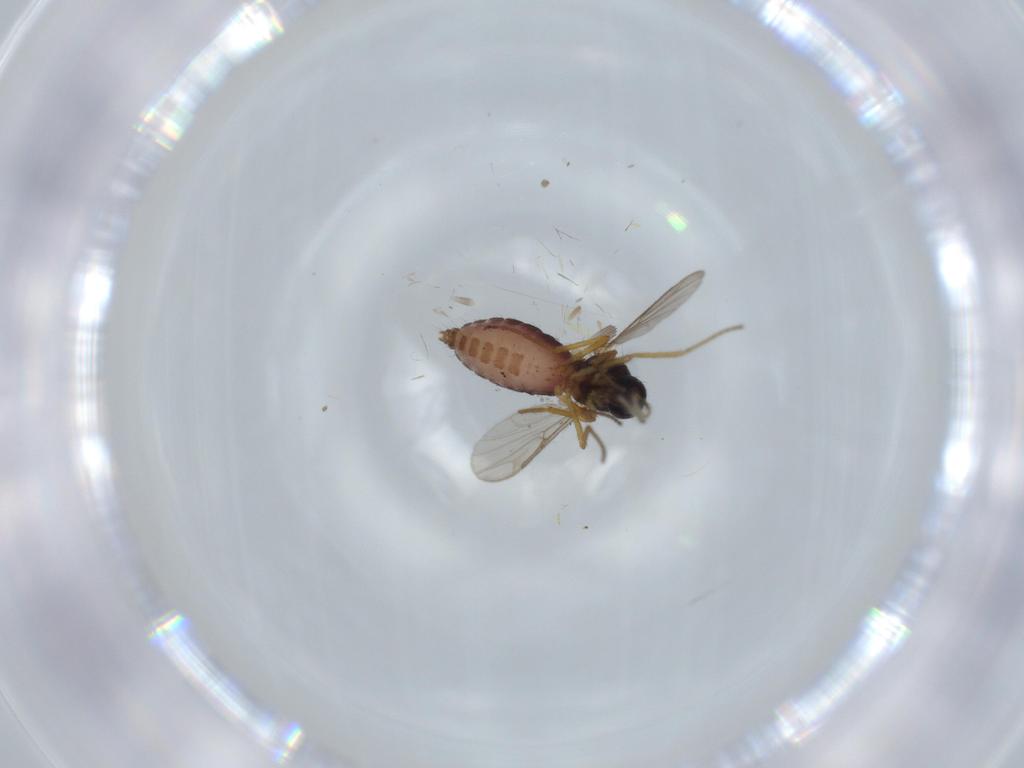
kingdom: Animalia
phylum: Arthropoda
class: Insecta
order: Diptera
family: Ceratopogonidae
